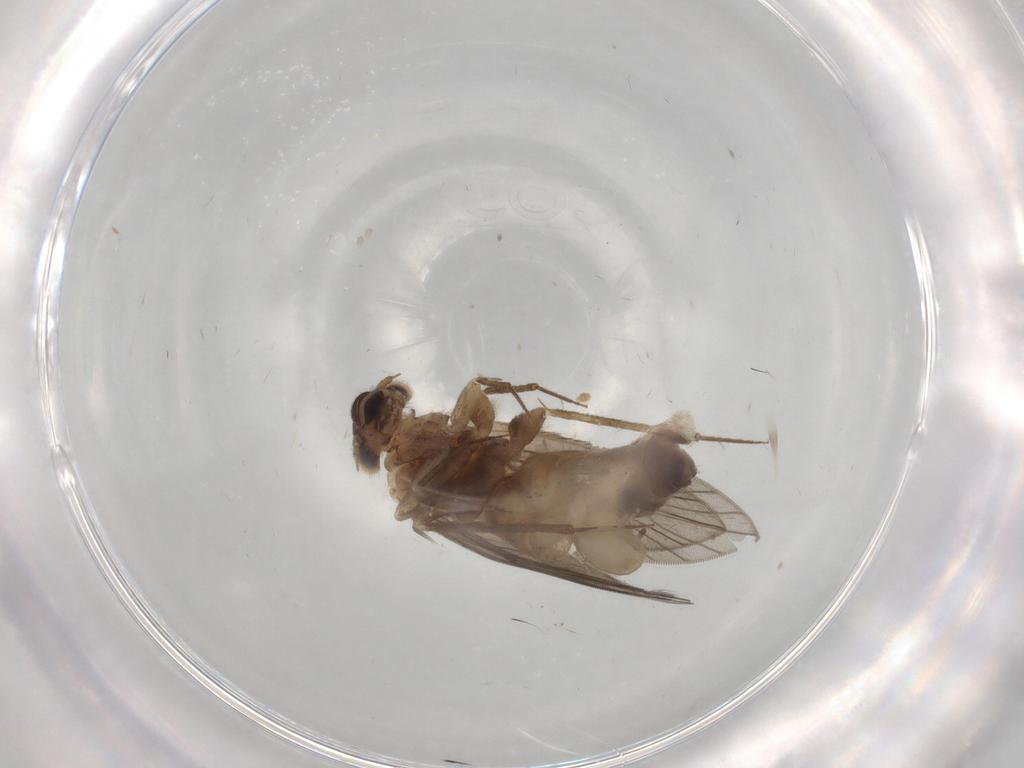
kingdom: Animalia
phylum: Arthropoda
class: Insecta
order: Psocodea
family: Lepidopsocidae
